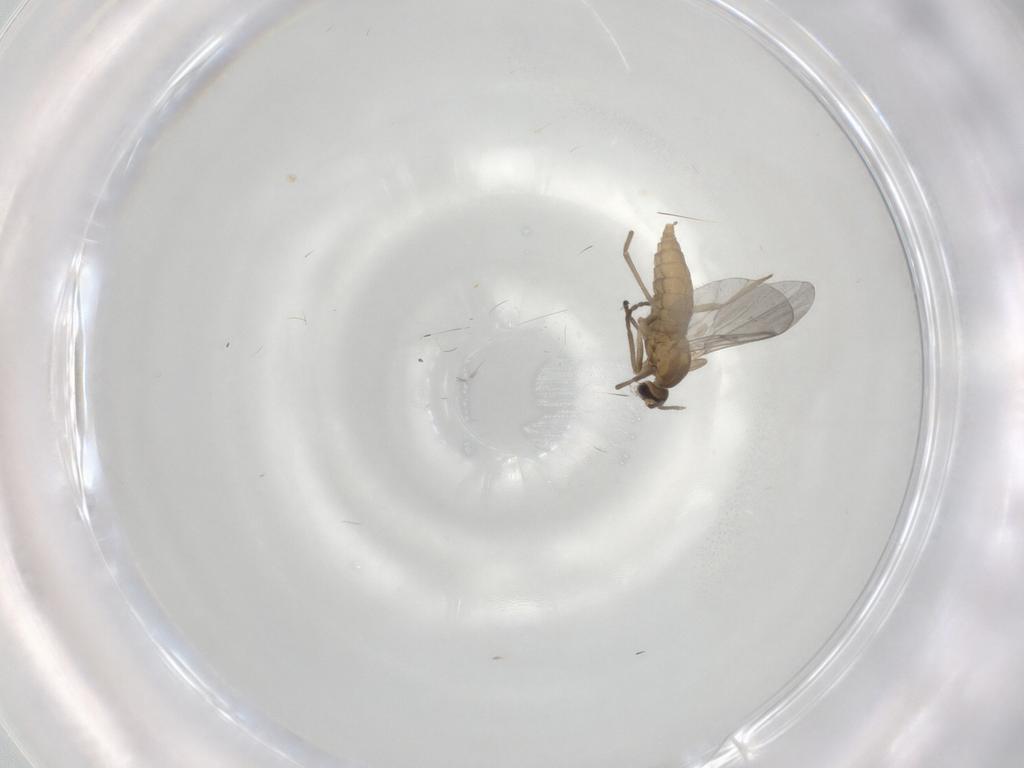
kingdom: Animalia
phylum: Arthropoda
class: Insecta
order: Diptera
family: Cecidomyiidae
